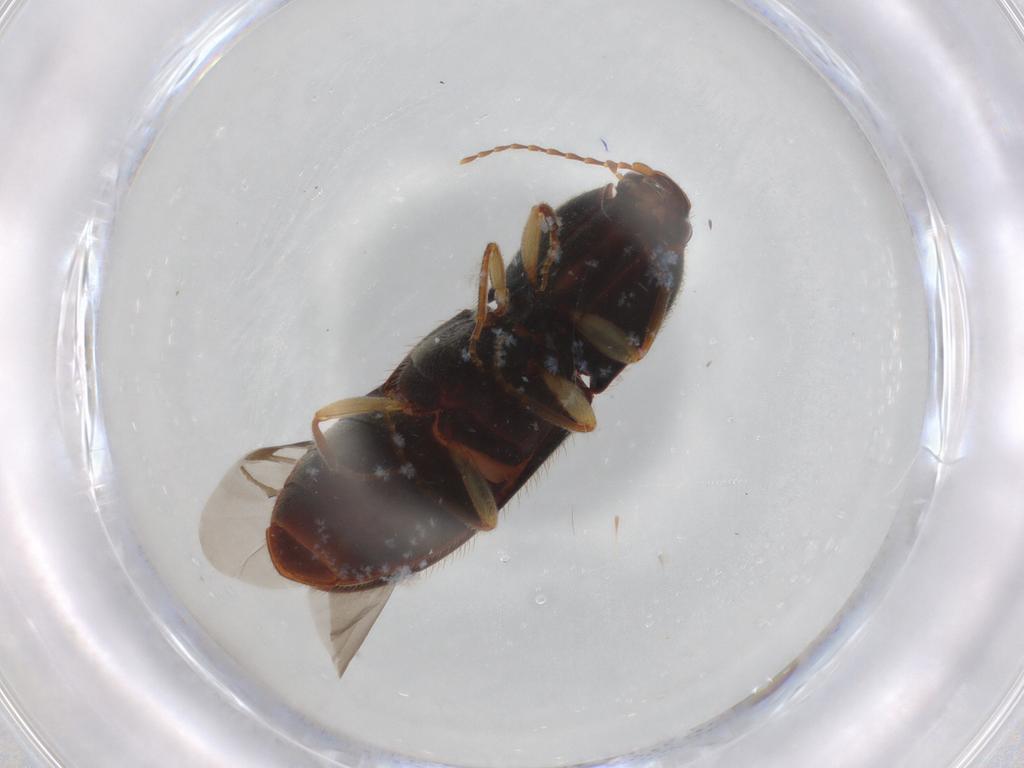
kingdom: Animalia
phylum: Arthropoda
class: Insecta
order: Coleoptera
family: Elateridae
